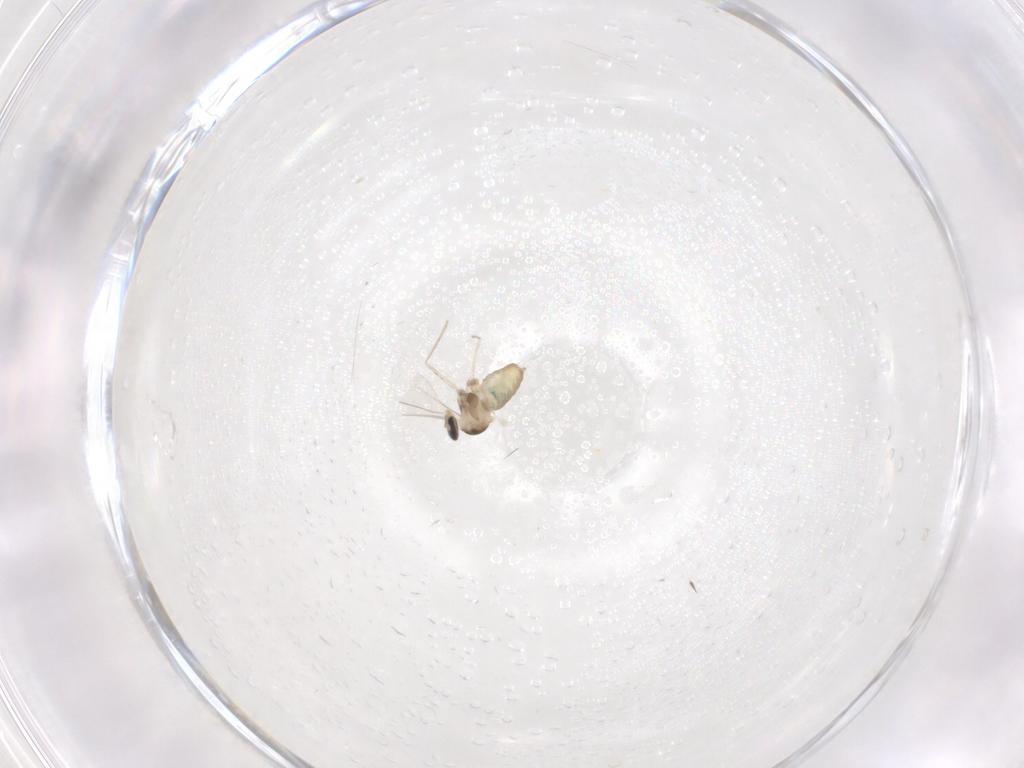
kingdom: Animalia
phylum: Arthropoda
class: Insecta
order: Diptera
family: Cecidomyiidae
